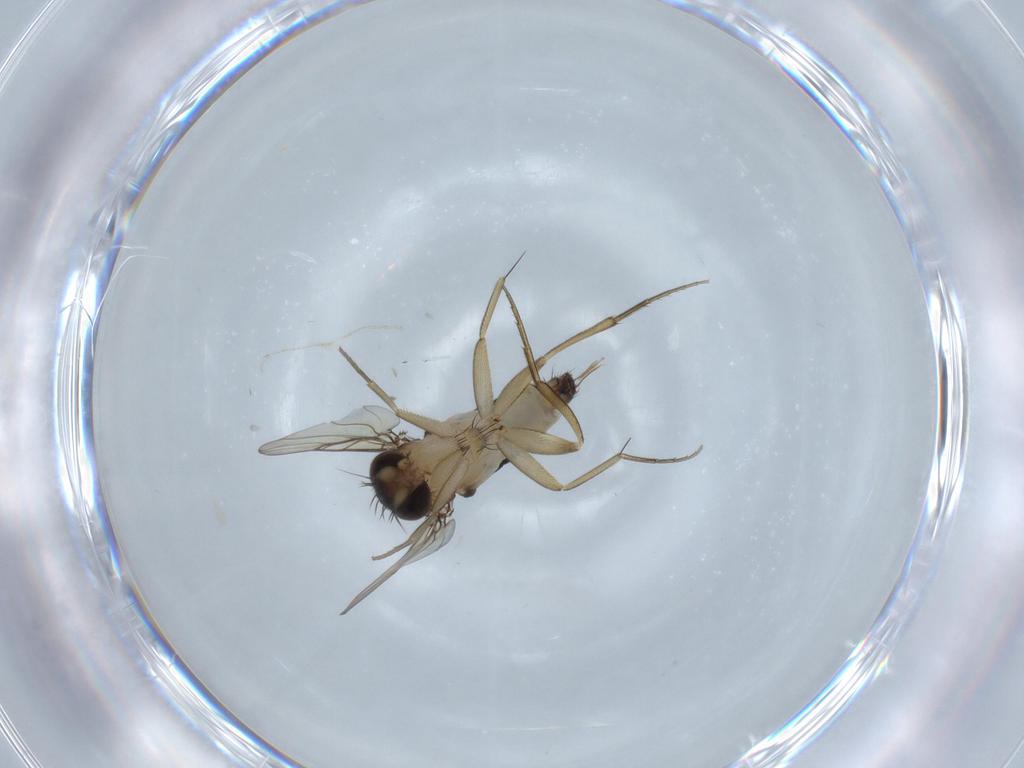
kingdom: Animalia
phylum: Arthropoda
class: Insecta
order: Diptera
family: Phoridae
